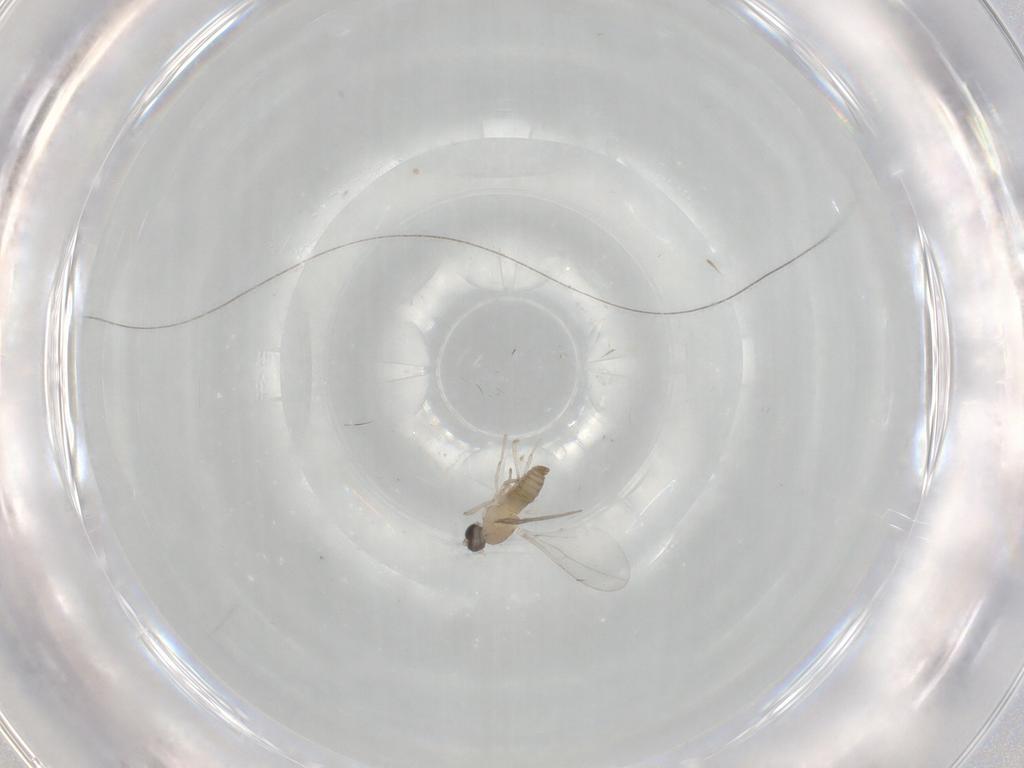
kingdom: Animalia
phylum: Arthropoda
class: Insecta
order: Diptera
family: Cecidomyiidae
